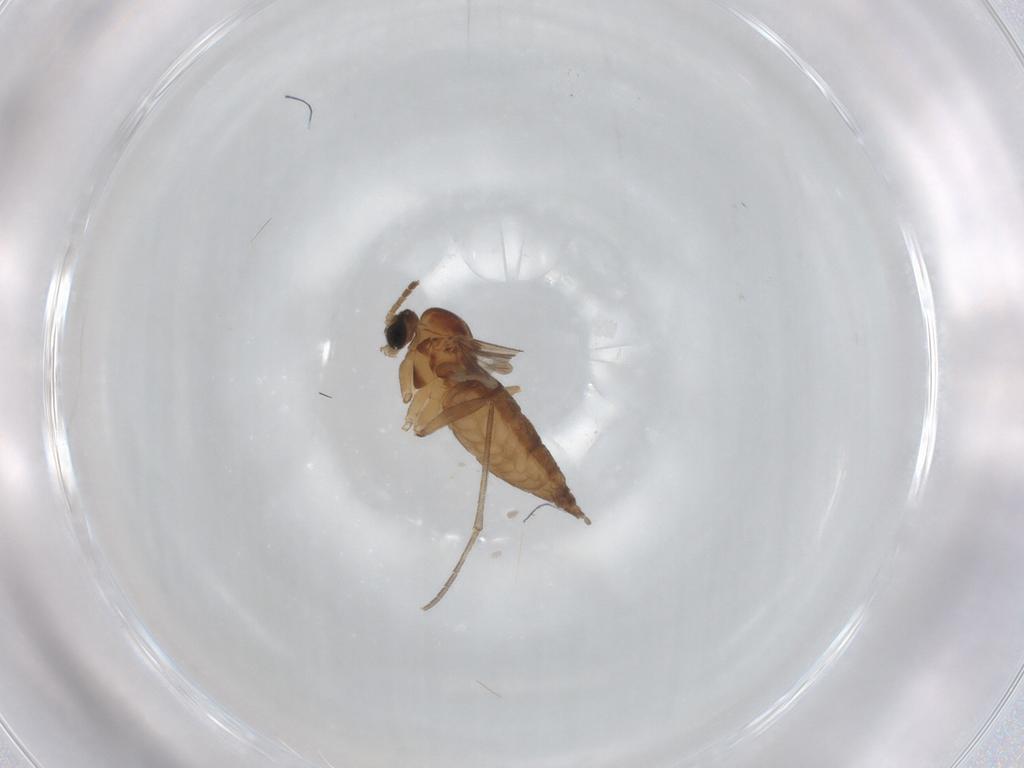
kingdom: Animalia
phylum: Arthropoda
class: Insecta
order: Diptera
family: Sciaridae
